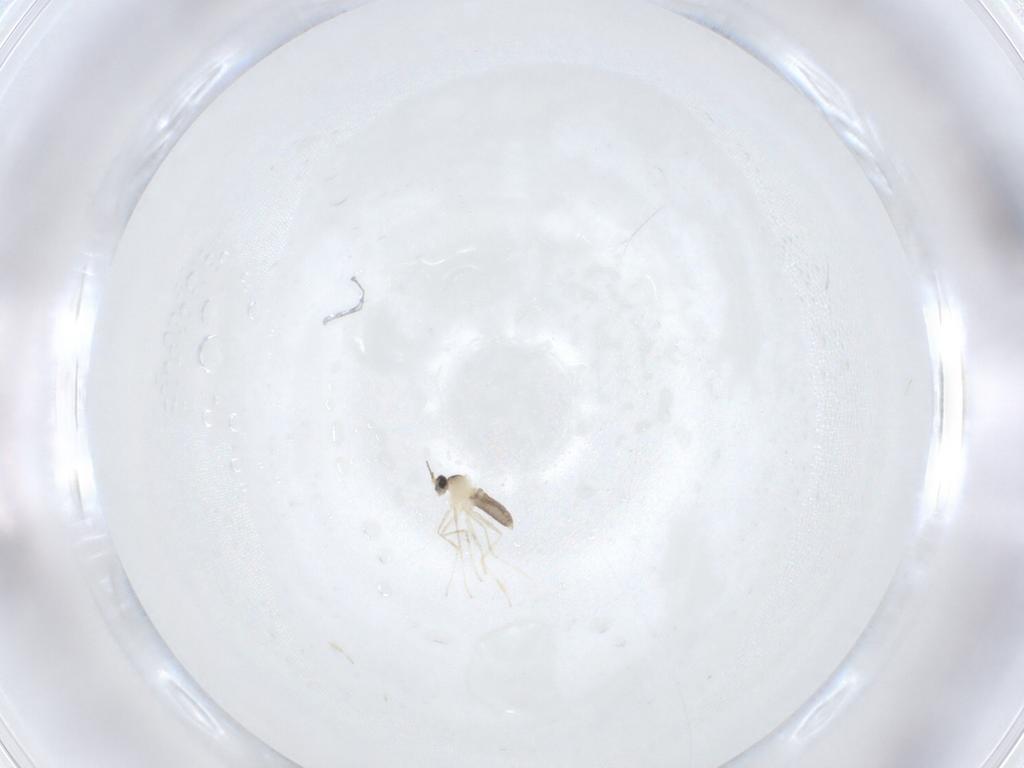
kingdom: Animalia
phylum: Arthropoda
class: Insecta
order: Diptera
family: Cecidomyiidae
